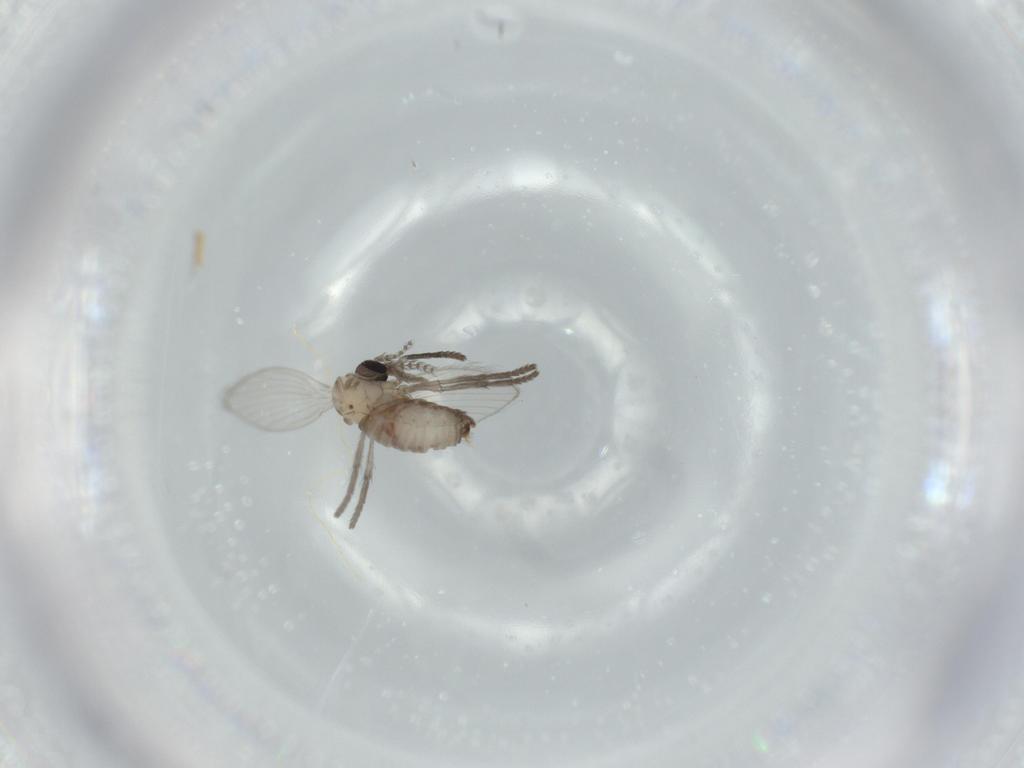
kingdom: Animalia
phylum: Arthropoda
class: Insecta
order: Diptera
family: Psychodidae
